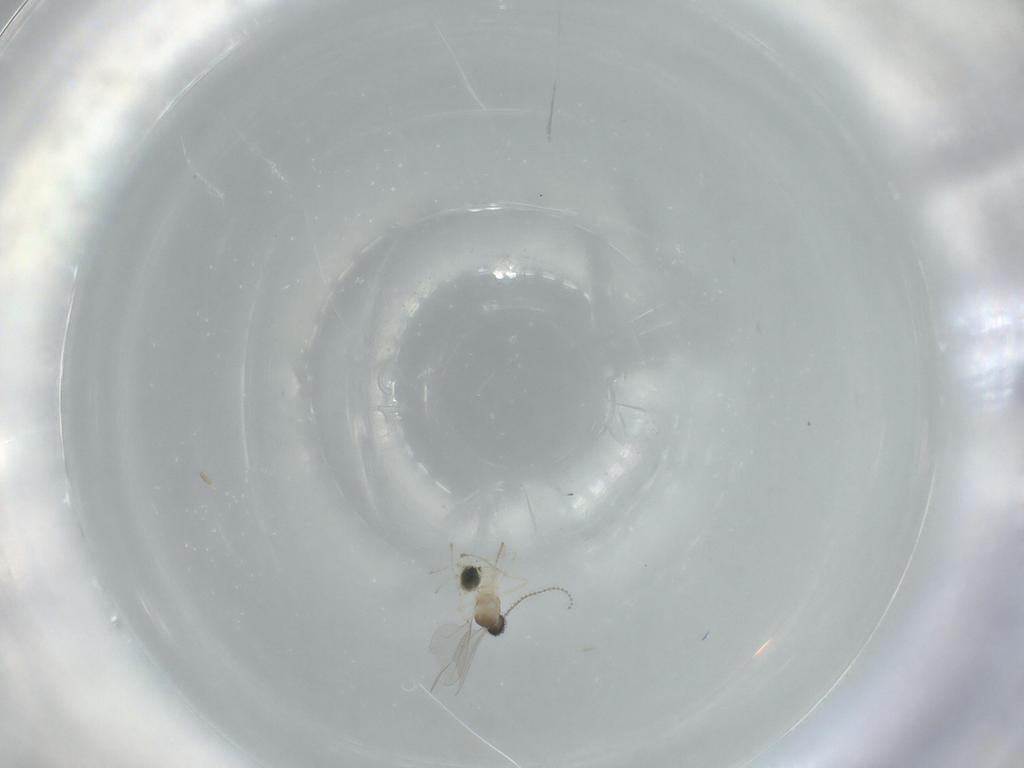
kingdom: Animalia
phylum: Arthropoda
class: Insecta
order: Diptera
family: Cecidomyiidae
